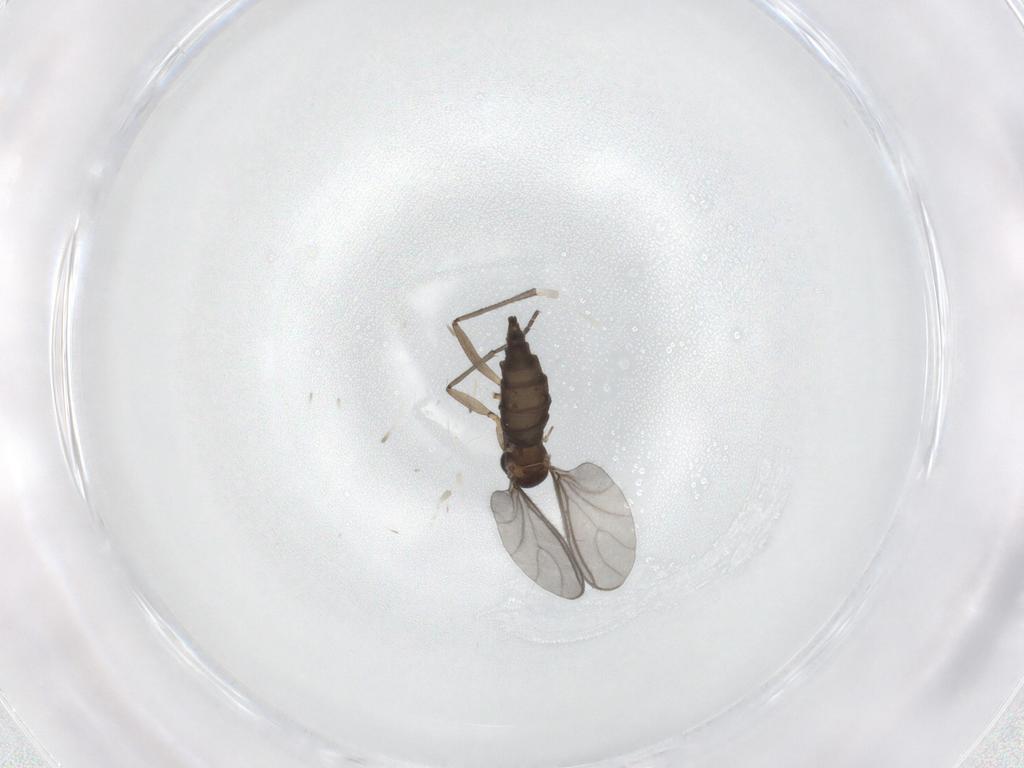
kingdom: Animalia
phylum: Arthropoda
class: Insecta
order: Diptera
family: Sciaridae
